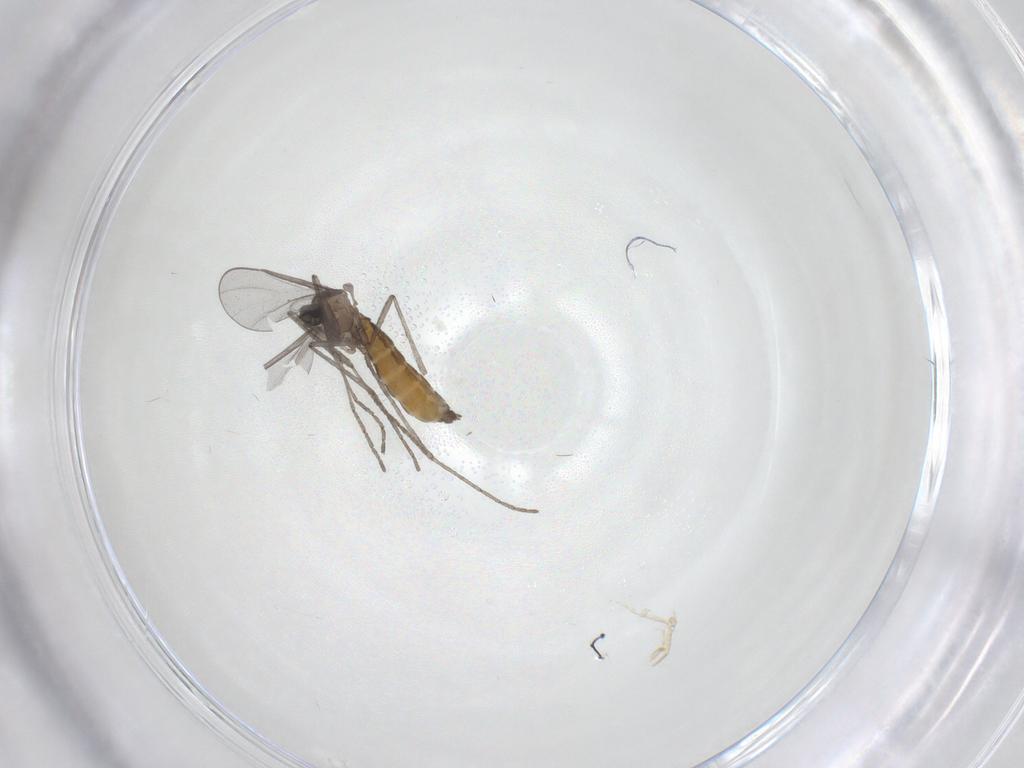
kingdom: Animalia
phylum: Arthropoda
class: Insecta
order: Diptera
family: Cecidomyiidae
